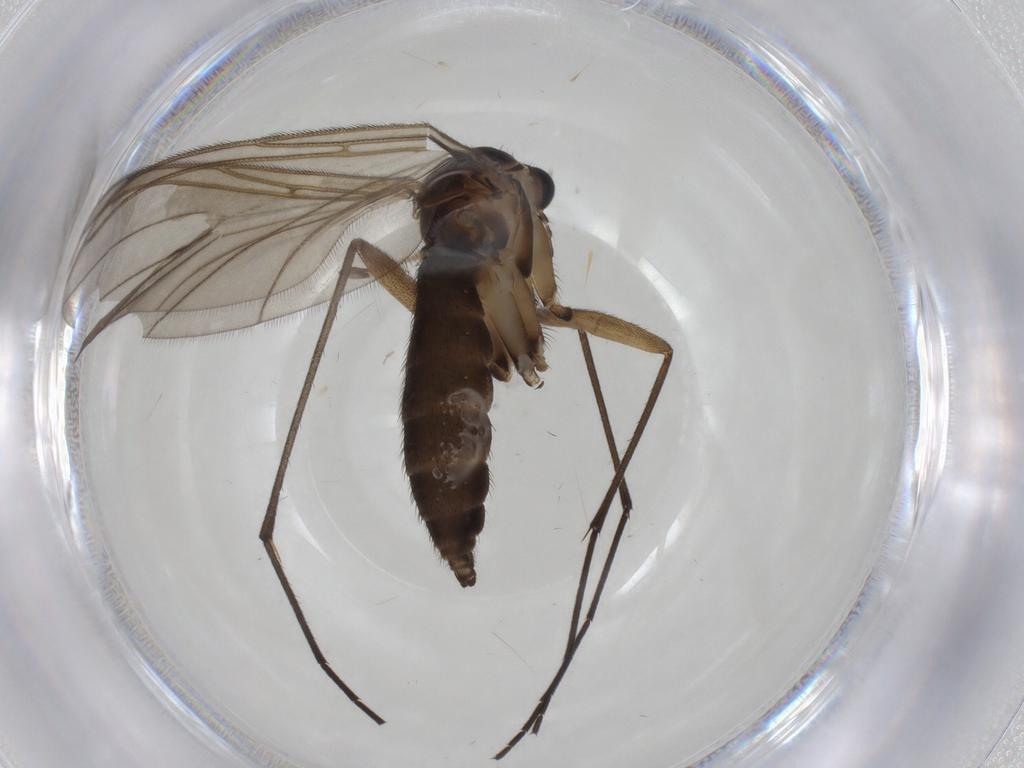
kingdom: Animalia
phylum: Arthropoda
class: Insecta
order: Diptera
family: Sciaridae
